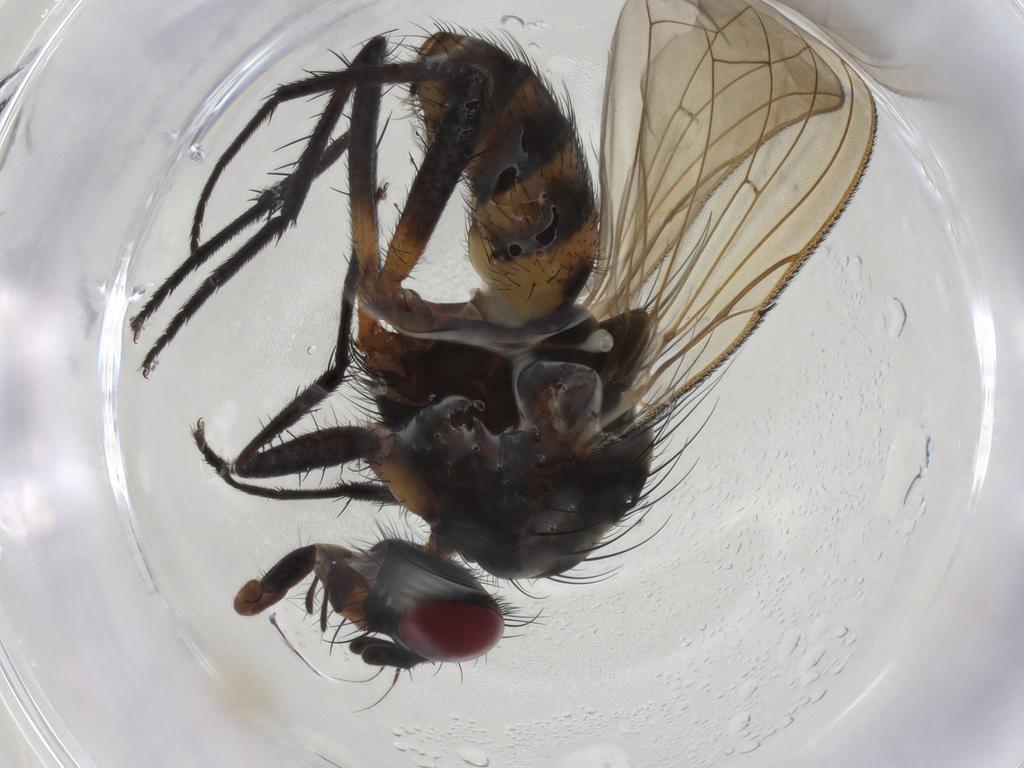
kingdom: Animalia
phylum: Arthropoda
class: Insecta
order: Diptera
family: Anthomyiidae
